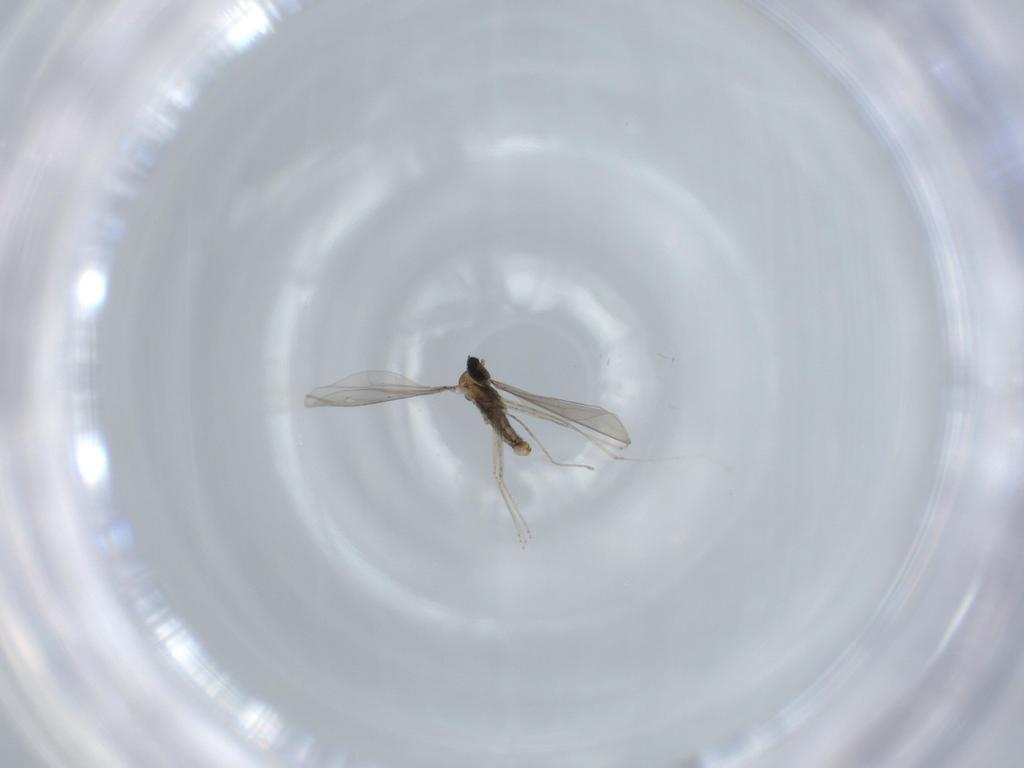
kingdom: Animalia
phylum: Arthropoda
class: Insecta
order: Diptera
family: Cecidomyiidae
